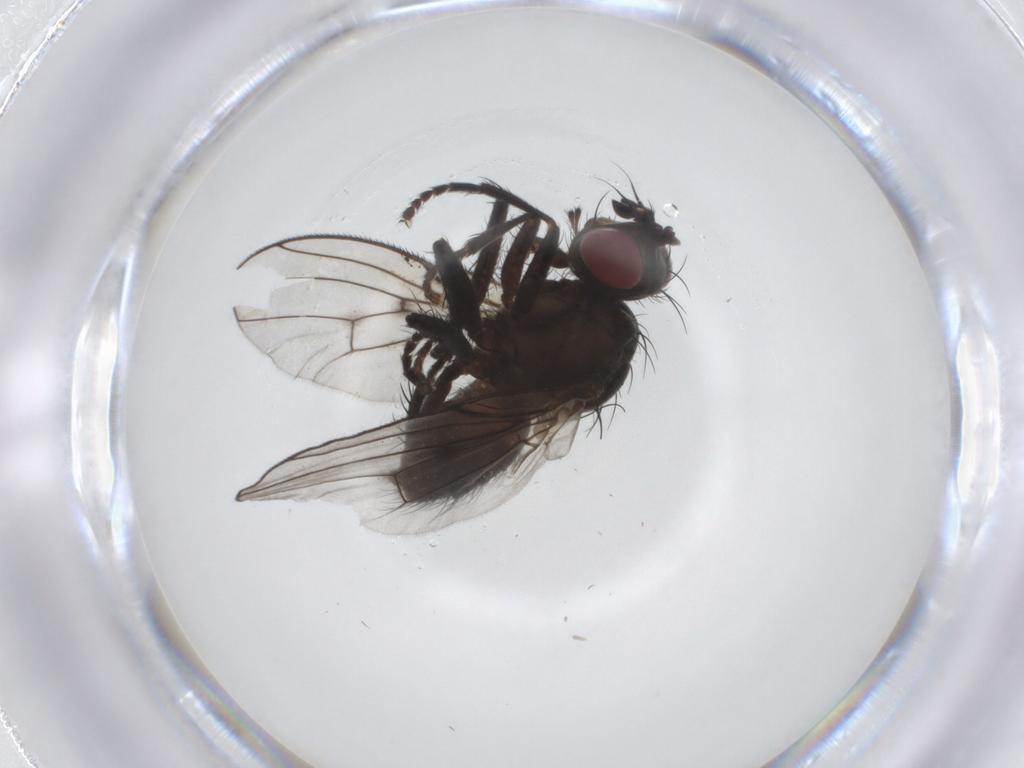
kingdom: Animalia
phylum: Arthropoda
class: Insecta
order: Diptera
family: Muscidae
